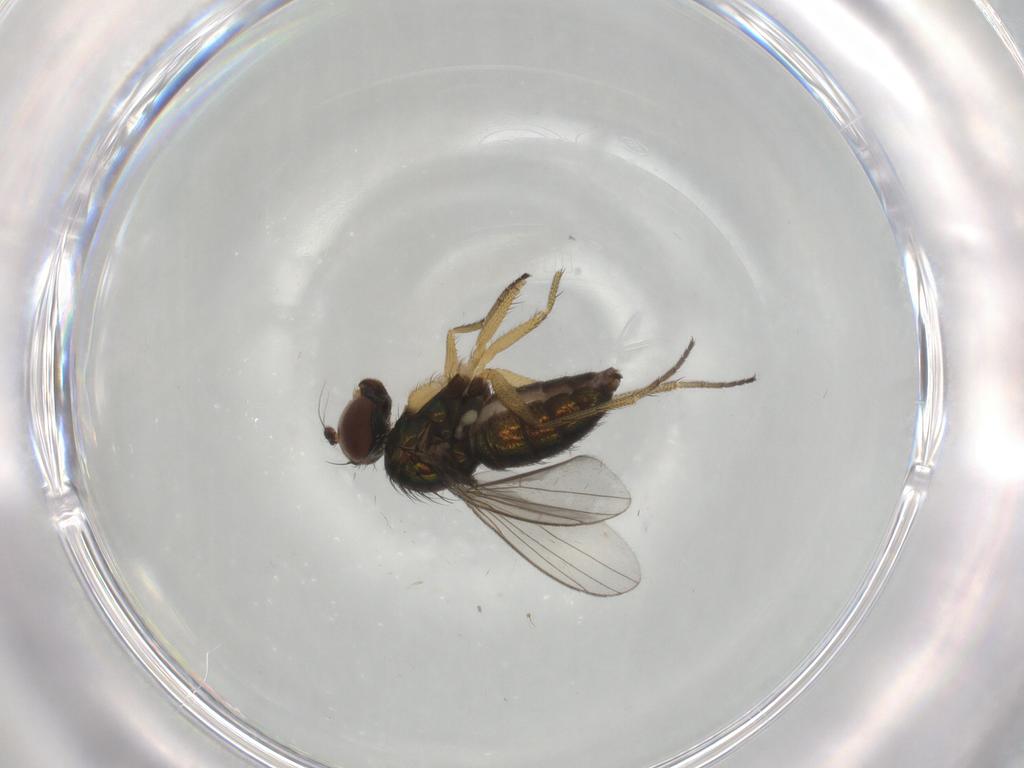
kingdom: Animalia
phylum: Arthropoda
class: Insecta
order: Diptera
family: Dolichopodidae
